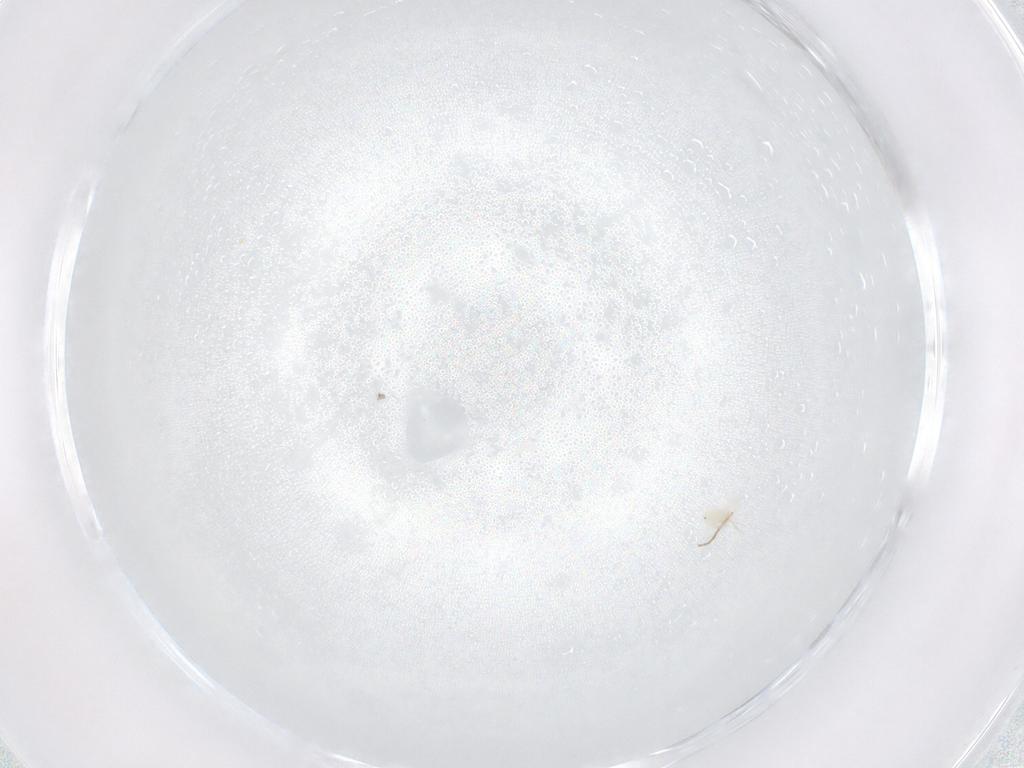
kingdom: Animalia
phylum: Arthropoda
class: Arachnida
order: Trombidiformes
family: Anystidae
